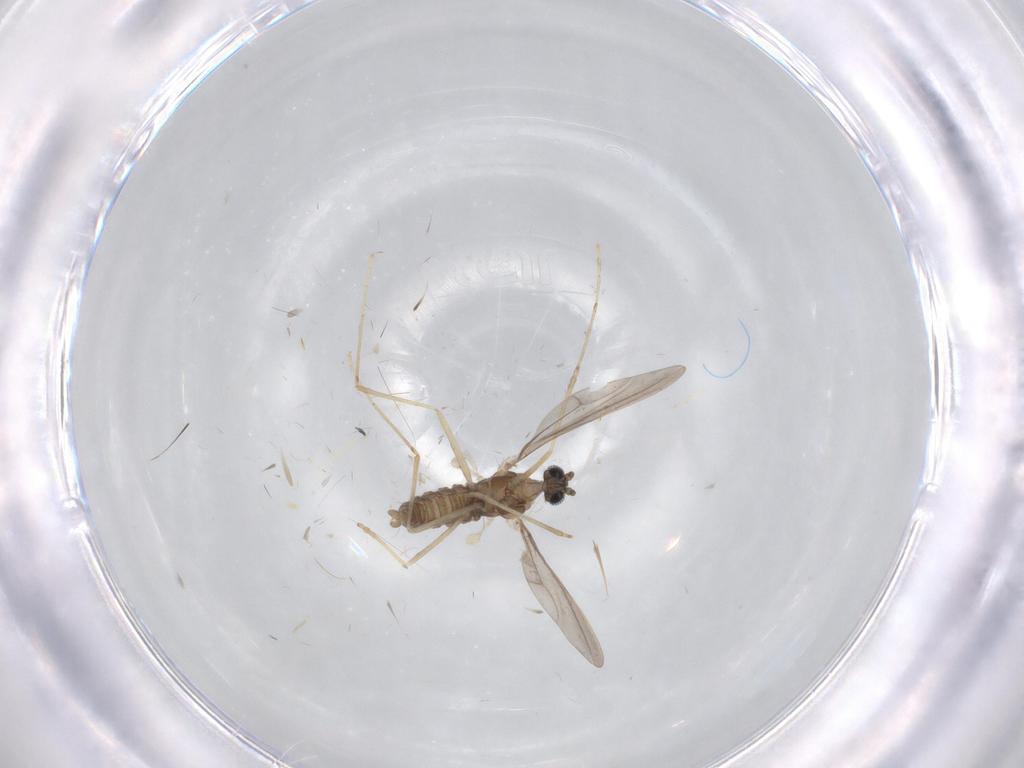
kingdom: Animalia
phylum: Arthropoda
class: Insecta
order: Diptera
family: Cecidomyiidae
